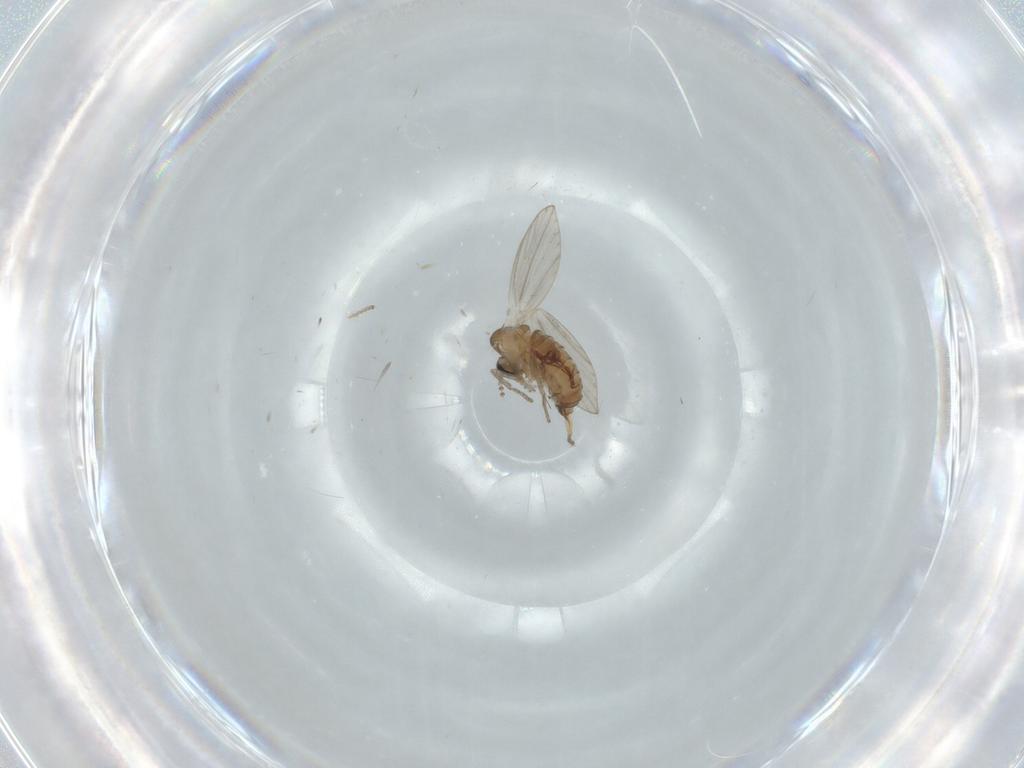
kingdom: Animalia
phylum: Arthropoda
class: Insecta
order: Diptera
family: Psychodidae
